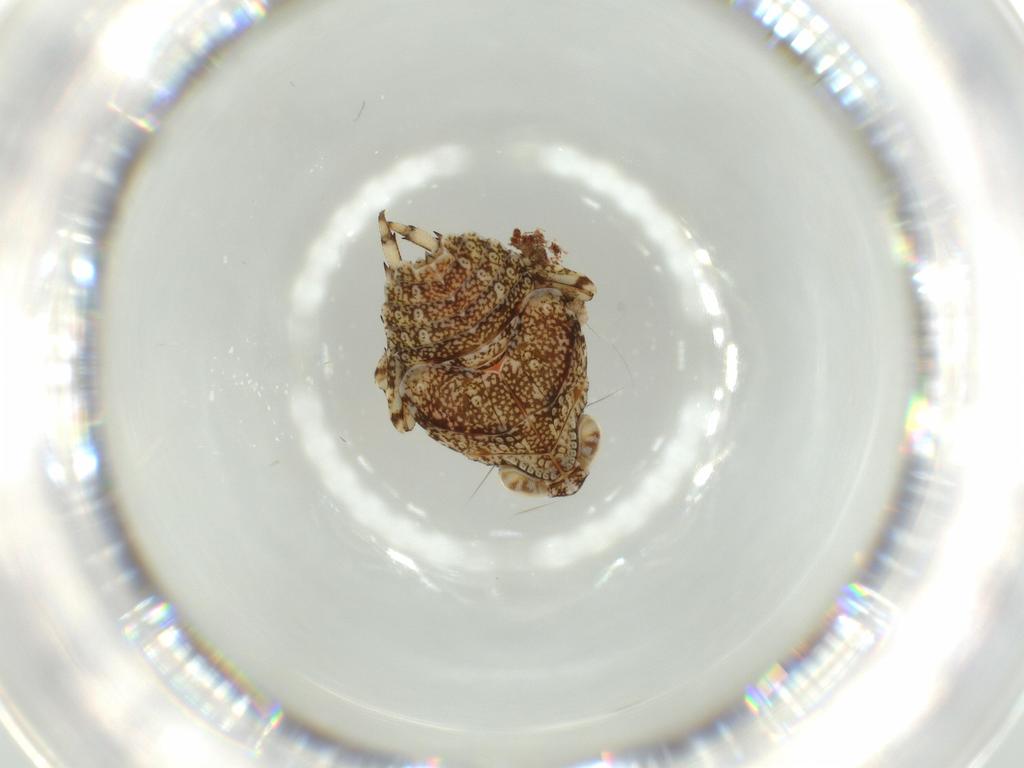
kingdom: Animalia
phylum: Arthropoda
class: Insecta
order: Hemiptera
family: Issidae
